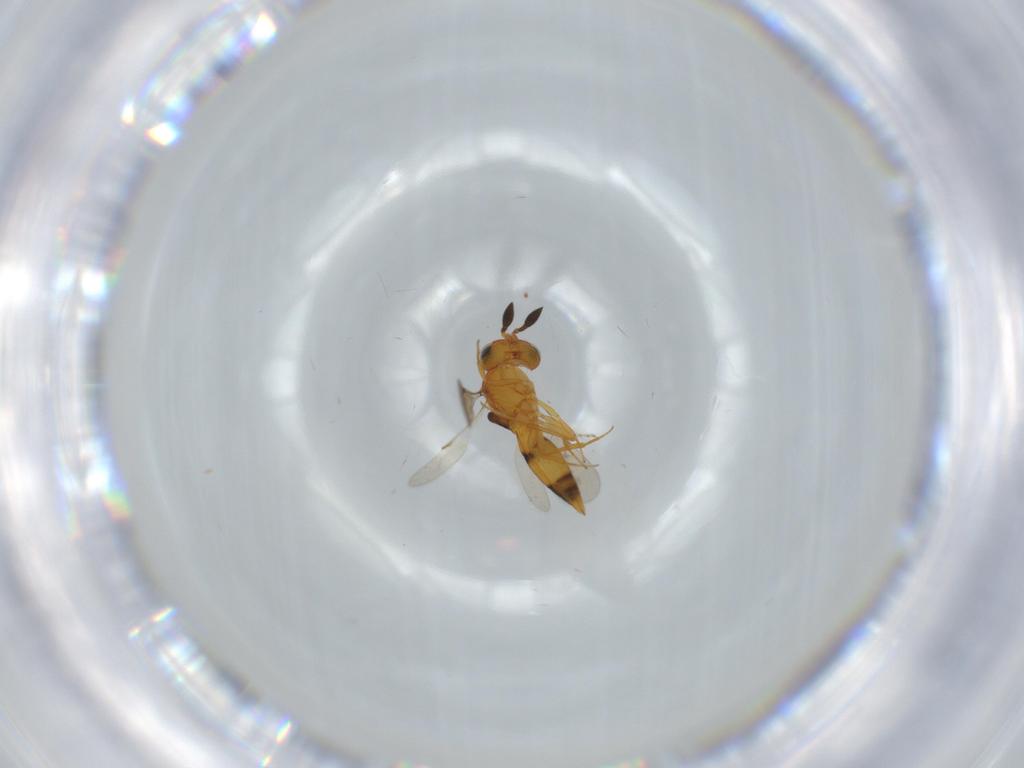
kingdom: Animalia
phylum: Arthropoda
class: Insecta
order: Hymenoptera
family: Scelionidae
